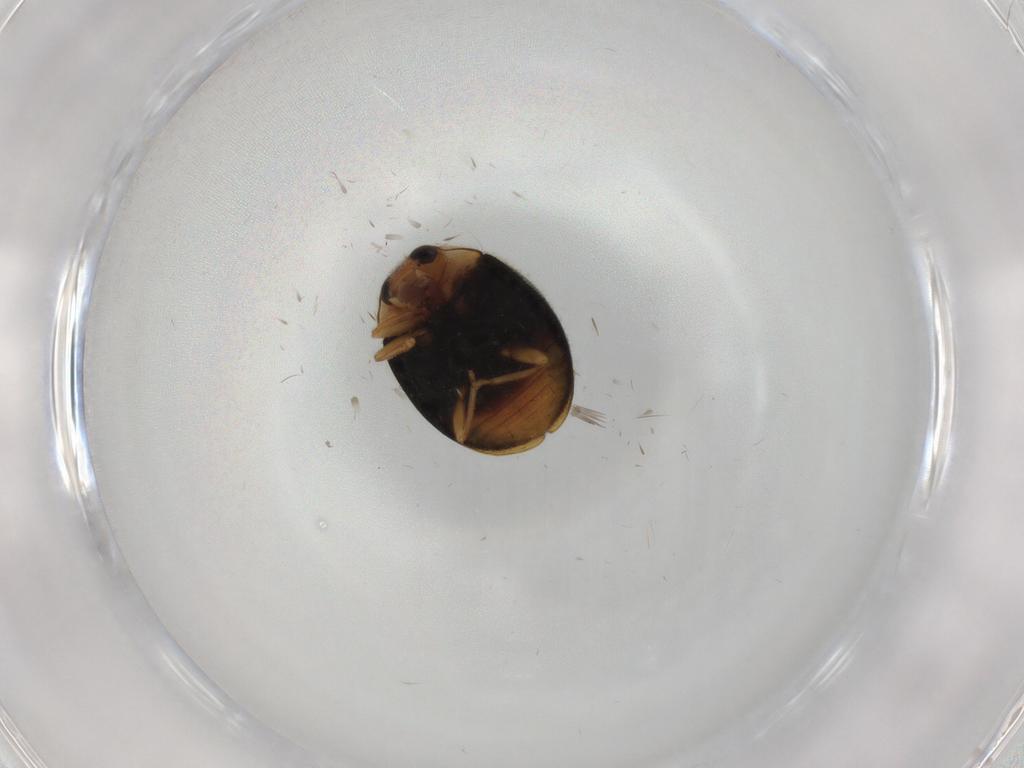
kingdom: Animalia
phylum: Arthropoda
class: Insecta
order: Coleoptera
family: Coccinellidae
